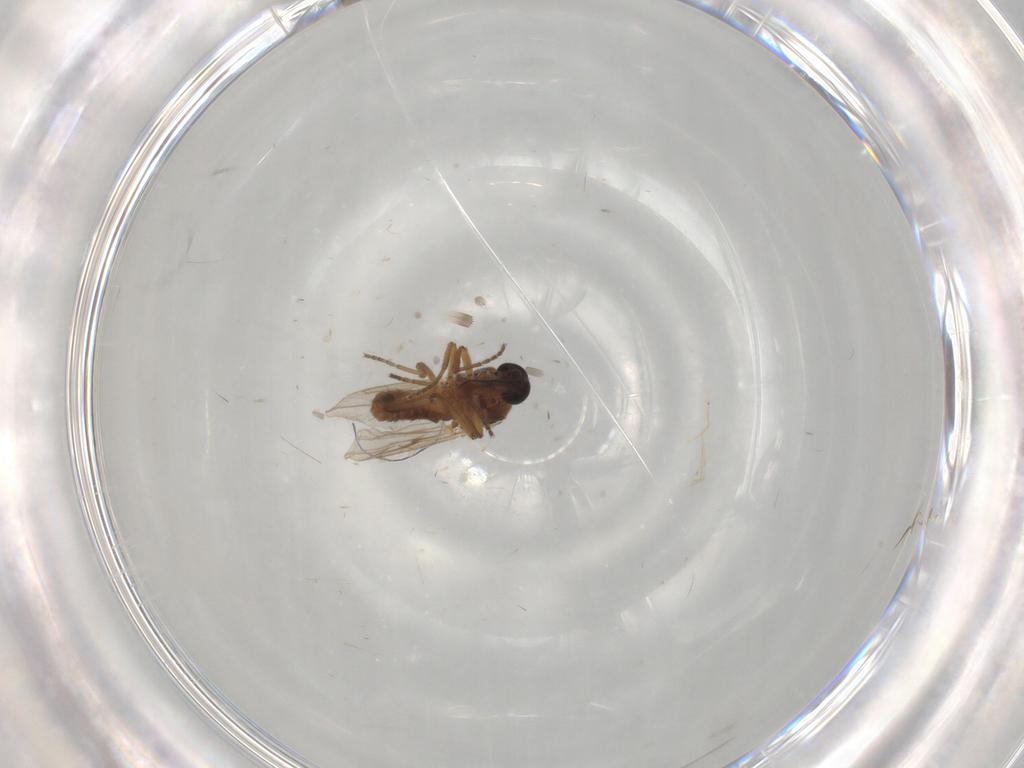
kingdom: Animalia
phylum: Arthropoda
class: Insecta
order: Diptera
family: Ceratopogonidae
